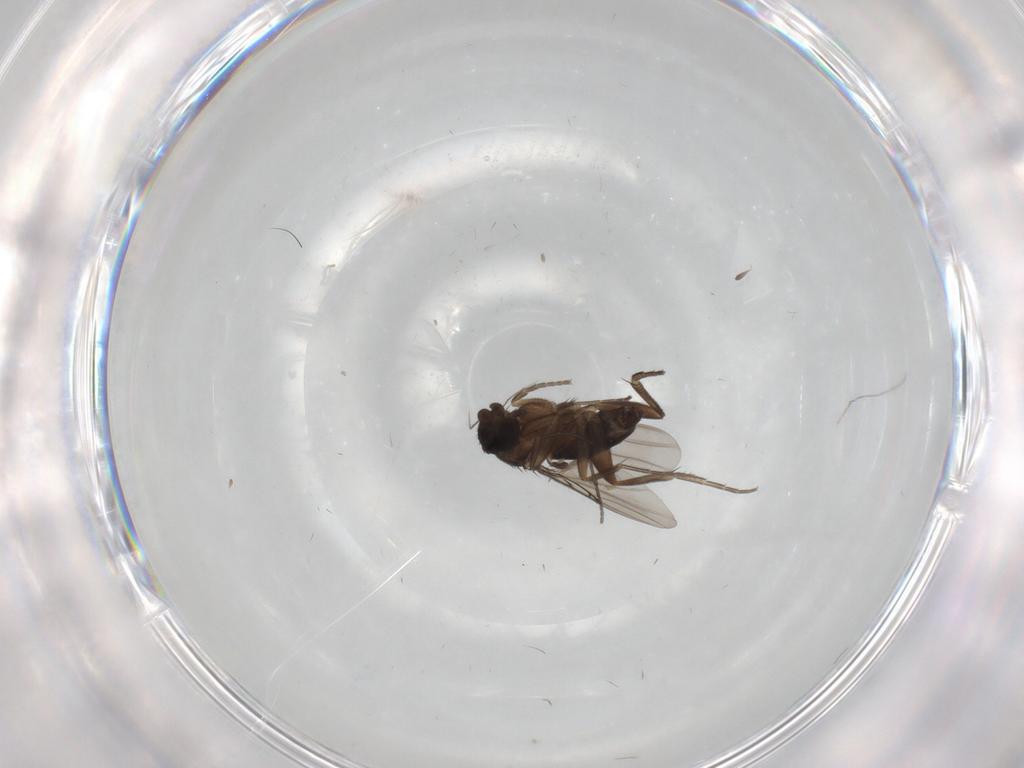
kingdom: Animalia
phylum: Arthropoda
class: Insecta
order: Diptera
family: Phoridae
